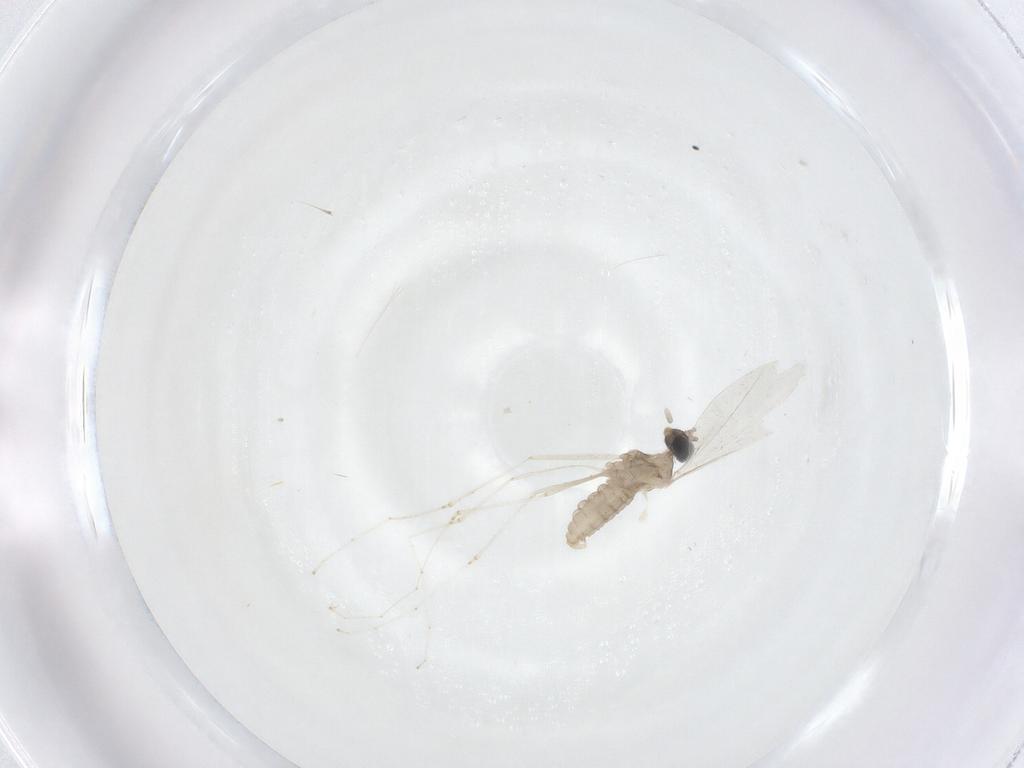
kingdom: Animalia
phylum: Arthropoda
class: Insecta
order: Diptera
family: Cecidomyiidae
